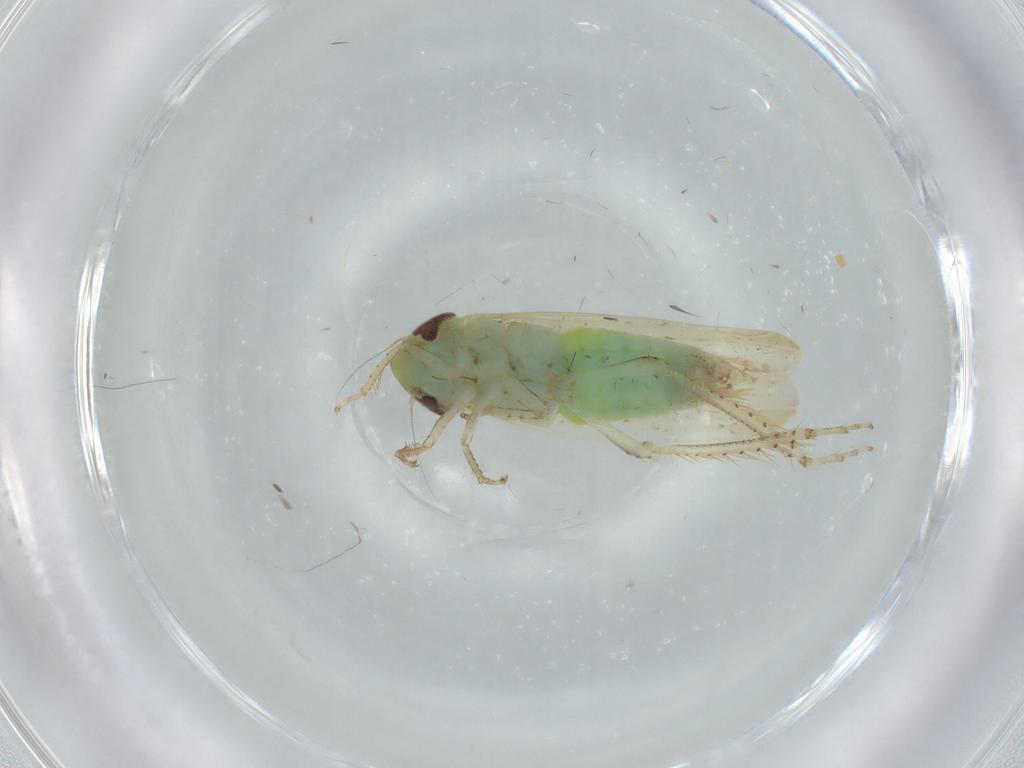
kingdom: Animalia
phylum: Arthropoda
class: Insecta
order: Hemiptera
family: Cicadellidae
